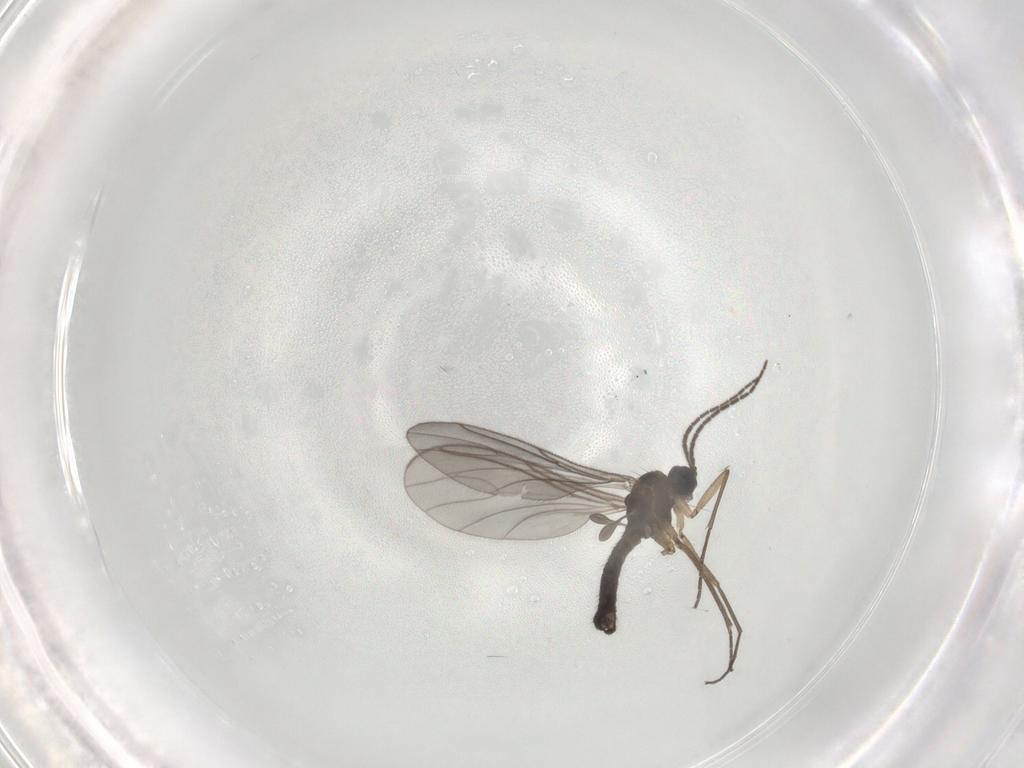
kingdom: Animalia
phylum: Arthropoda
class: Insecta
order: Diptera
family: Sciaridae
